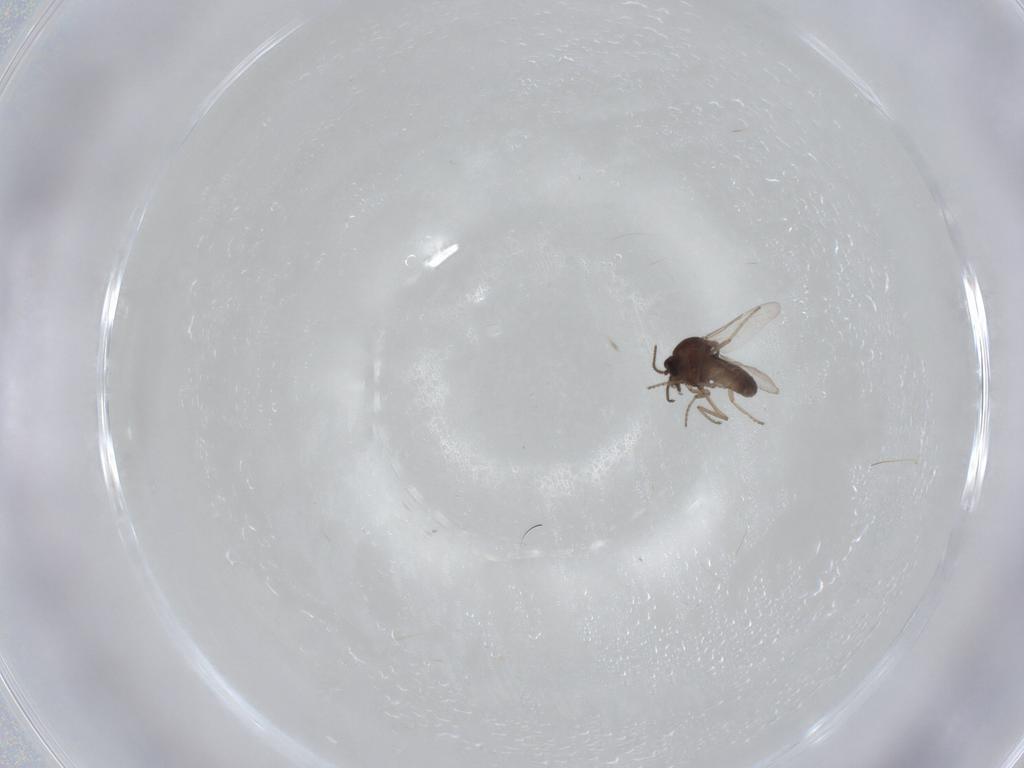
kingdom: Animalia
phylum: Arthropoda
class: Insecta
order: Diptera
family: Ceratopogonidae
